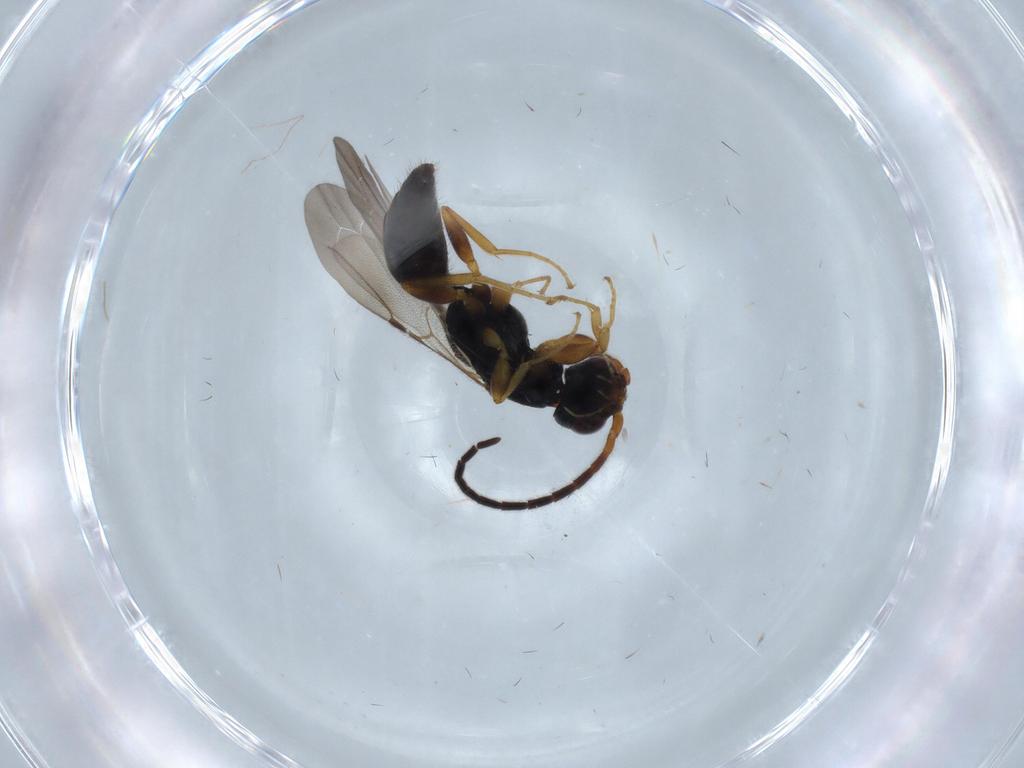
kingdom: Animalia
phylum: Arthropoda
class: Insecta
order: Hymenoptera
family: Bethylidae
